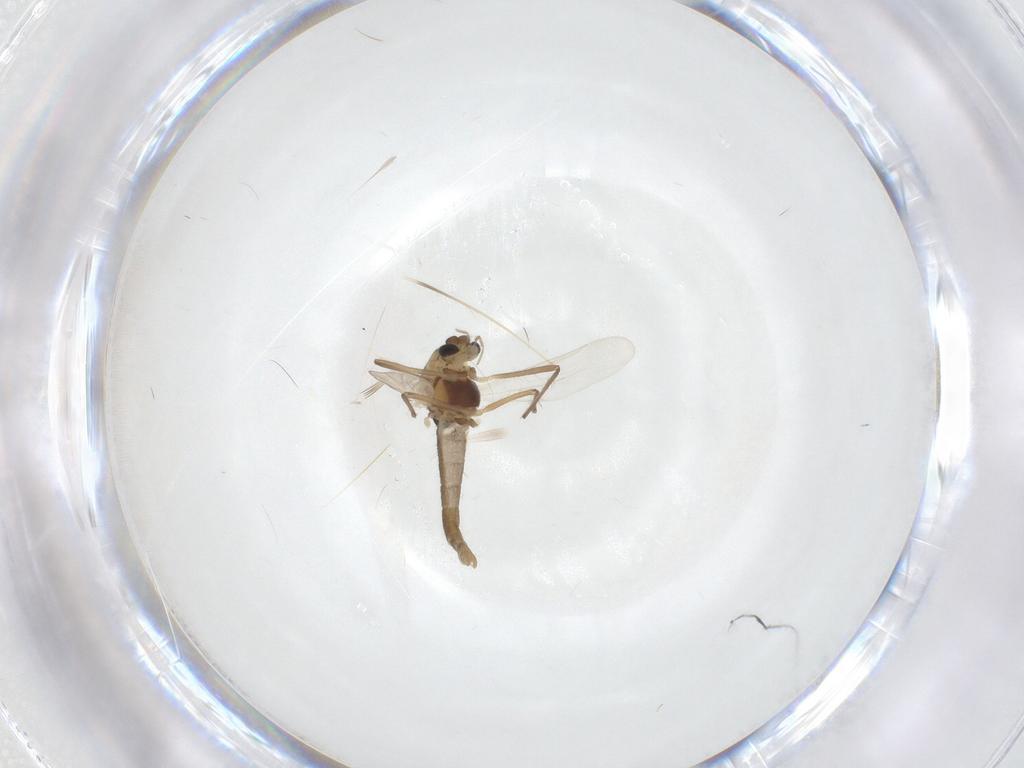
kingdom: Animalia
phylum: Arthropoda
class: Insecta
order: Diptera
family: Chironomidae
